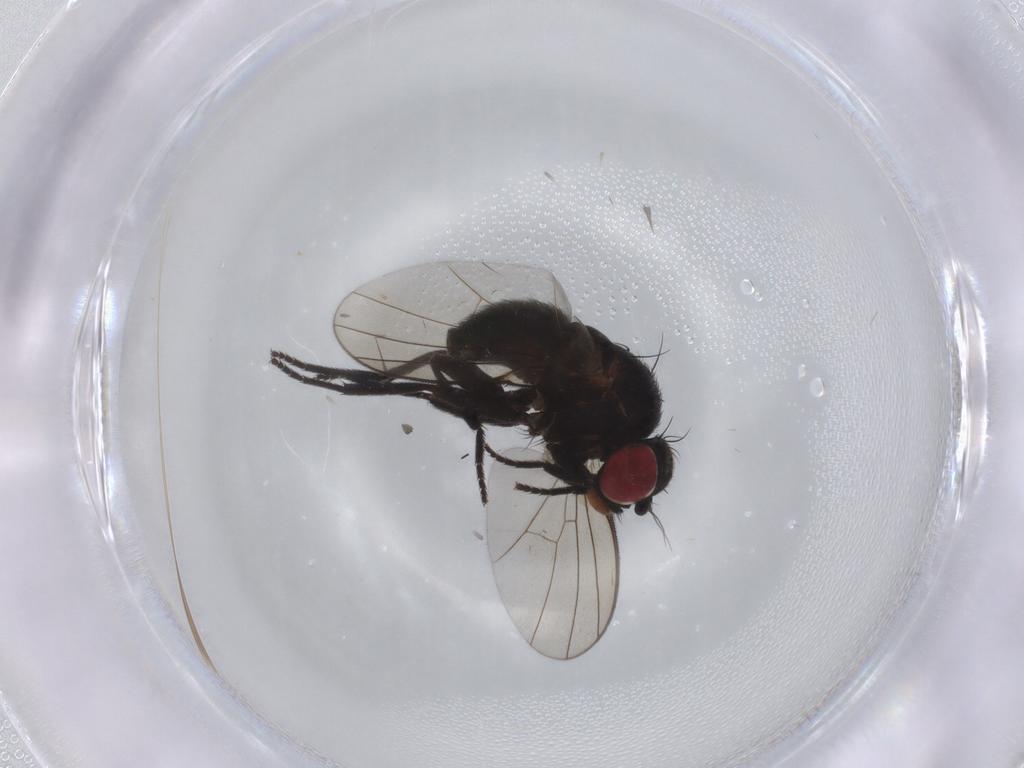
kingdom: Animalia
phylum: Arthropoda
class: Insecta
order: Diptera
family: Agromyzidae
